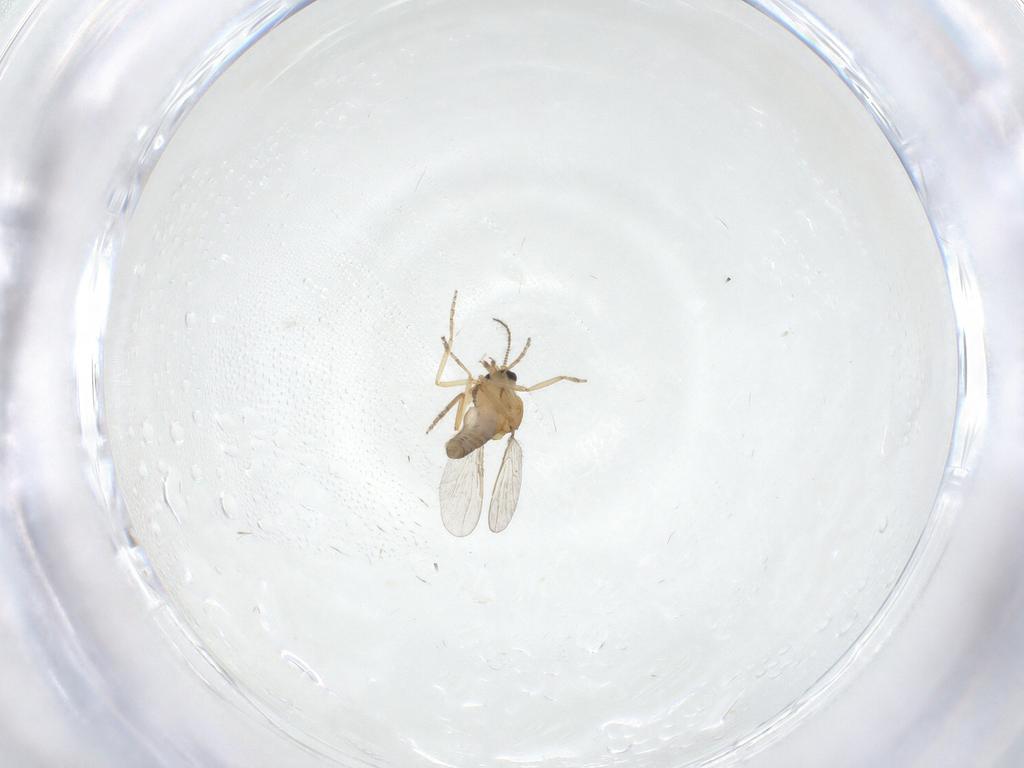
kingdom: Animalia
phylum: Arthropoda
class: Insecta
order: Diptera
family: Ceratopogonidae
